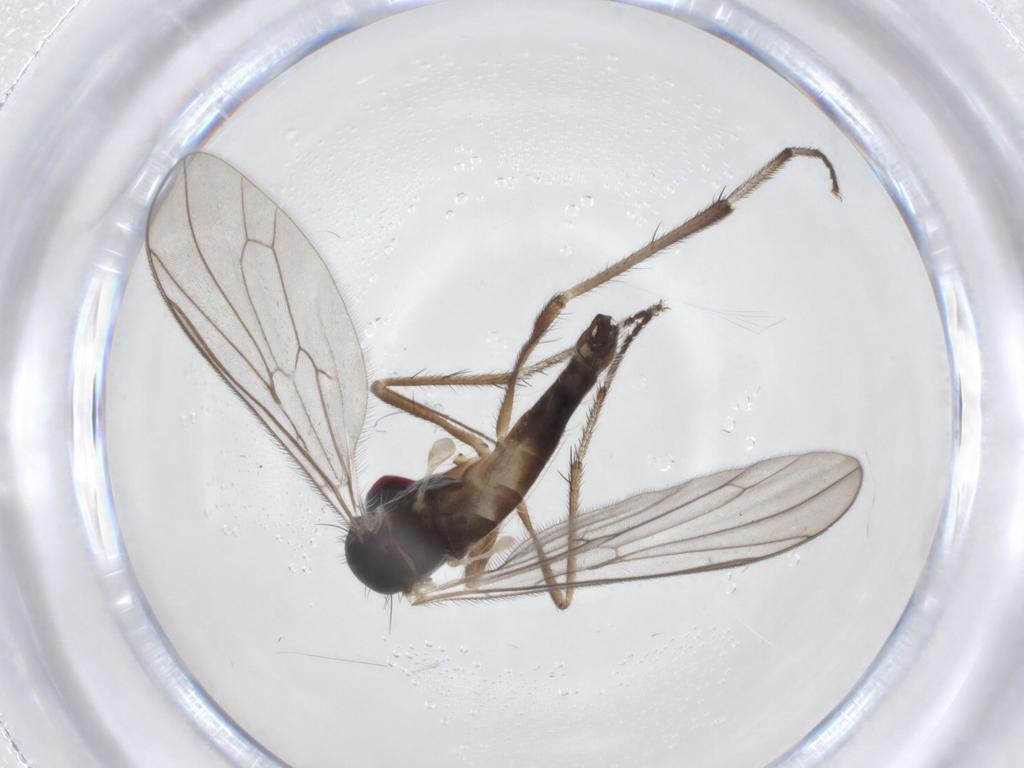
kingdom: Animalia
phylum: Arthropoda
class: Insecta
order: Diptera
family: Hybotidae
